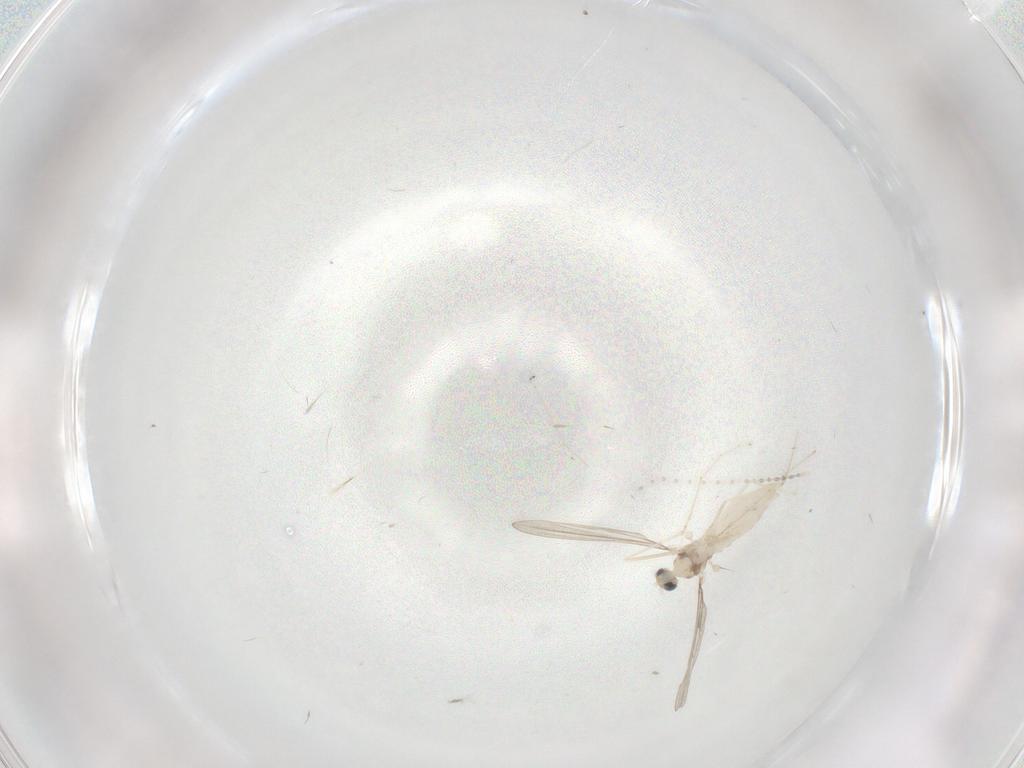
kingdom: Animalia
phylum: Arthropoda
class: Insecta
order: Diptera
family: Cecidomyiidae
